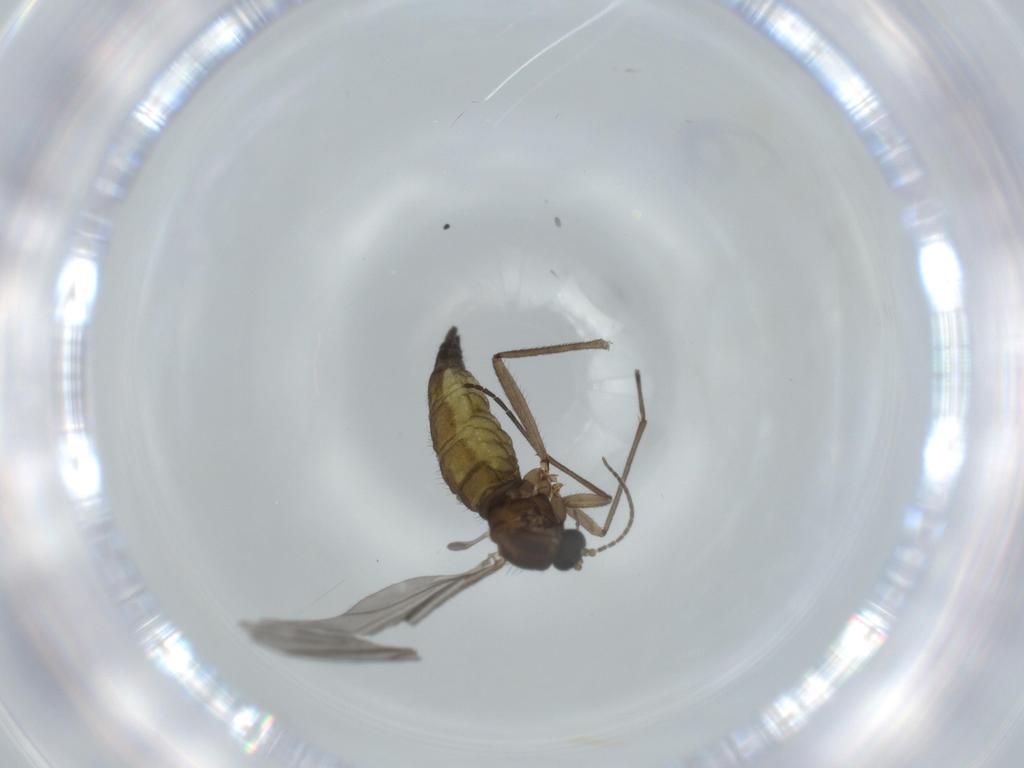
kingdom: Animalia
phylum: Arthropoda
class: Insecta
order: Diptera
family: Sciaridae
